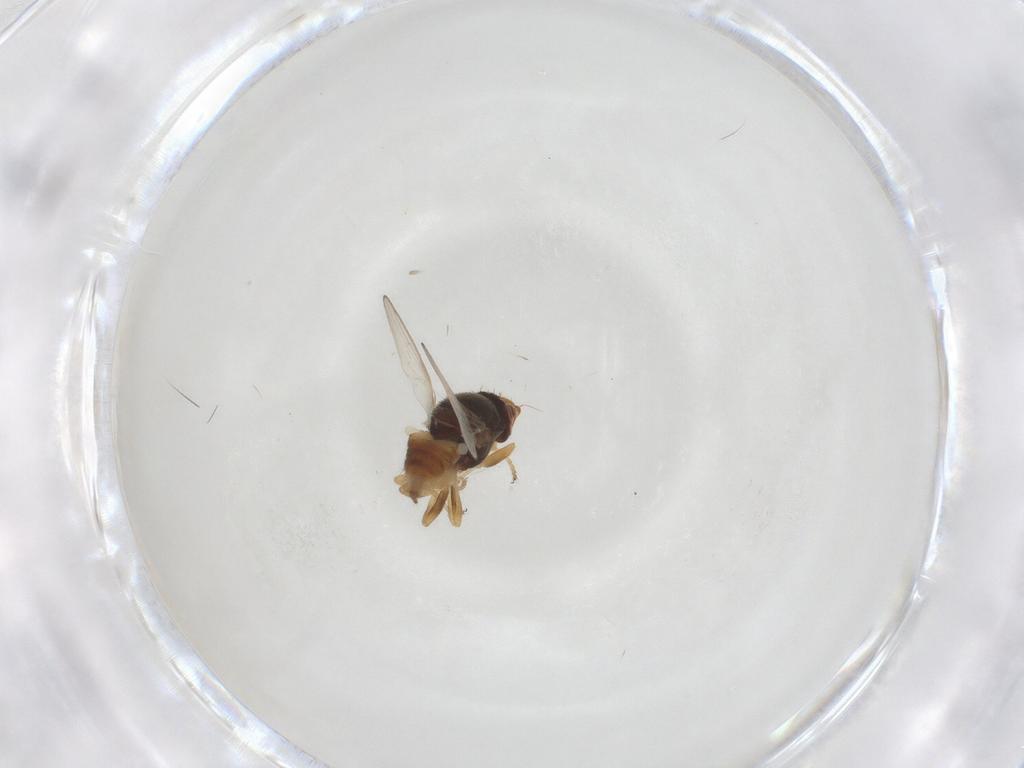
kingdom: Animalia
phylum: Arthropoda
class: Insecta
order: Diptera
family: Chloropidae
